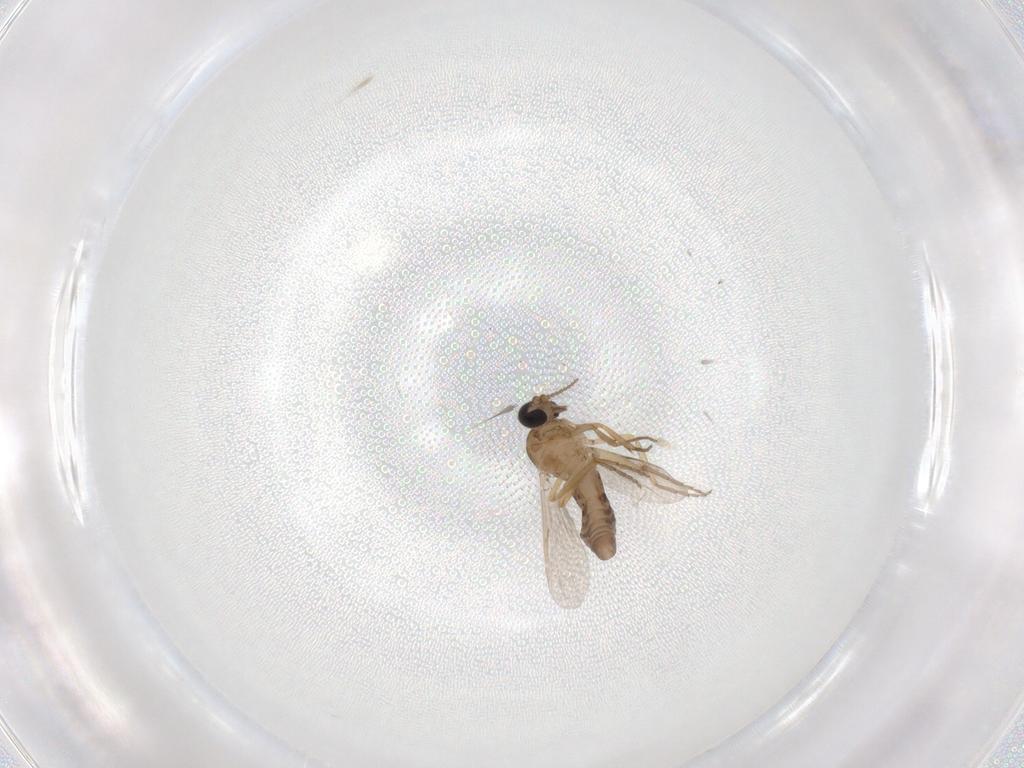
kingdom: Animalia
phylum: Arthropoda
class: Insecta
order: Diptera
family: Ceratopogonidae
